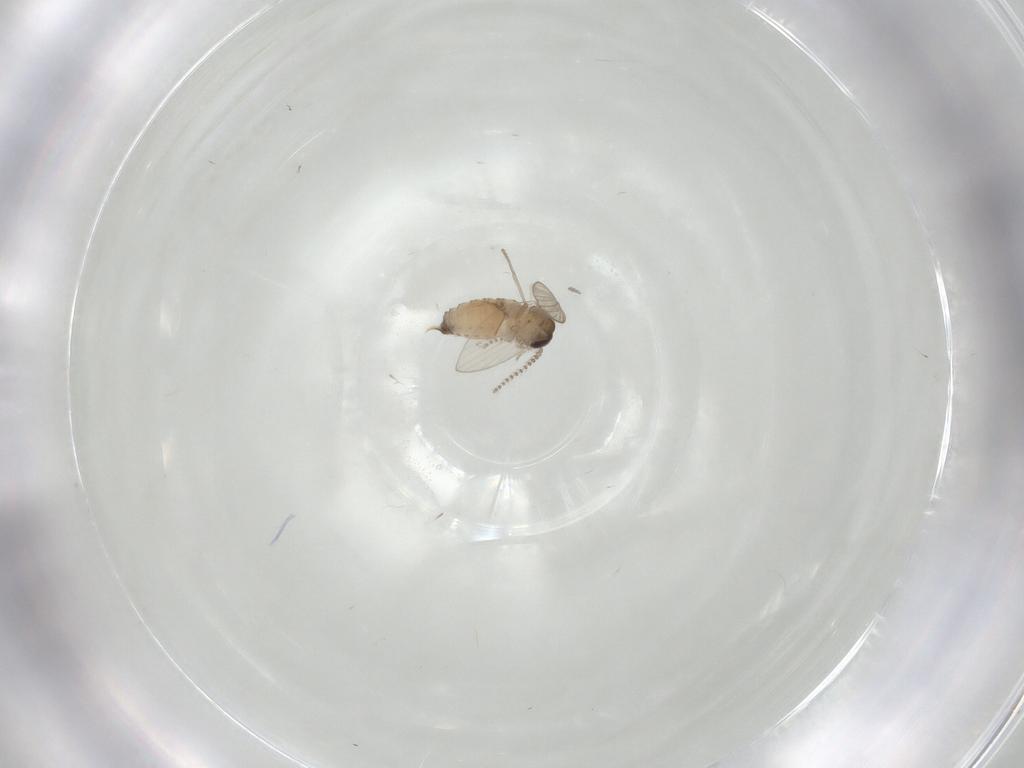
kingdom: Animalia
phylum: Arthropoda
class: Insecta
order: Diptera
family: Psychodidae
